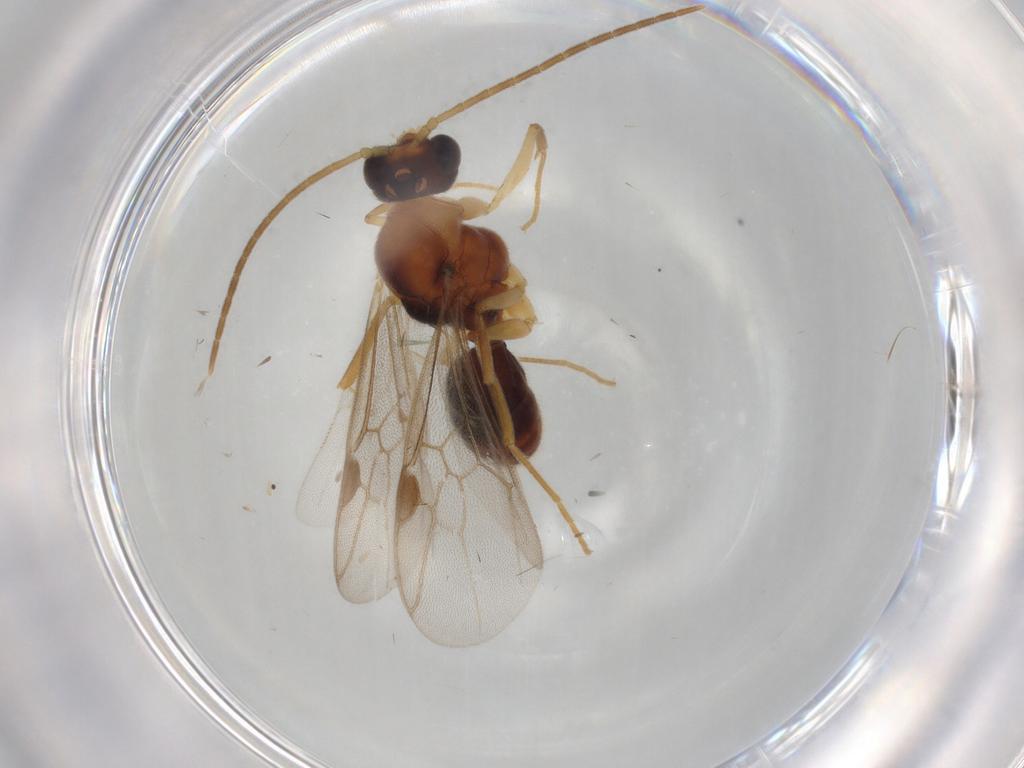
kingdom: Animalia
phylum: Arthropoda
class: Insecta
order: Hymenoptera
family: Formicidae
